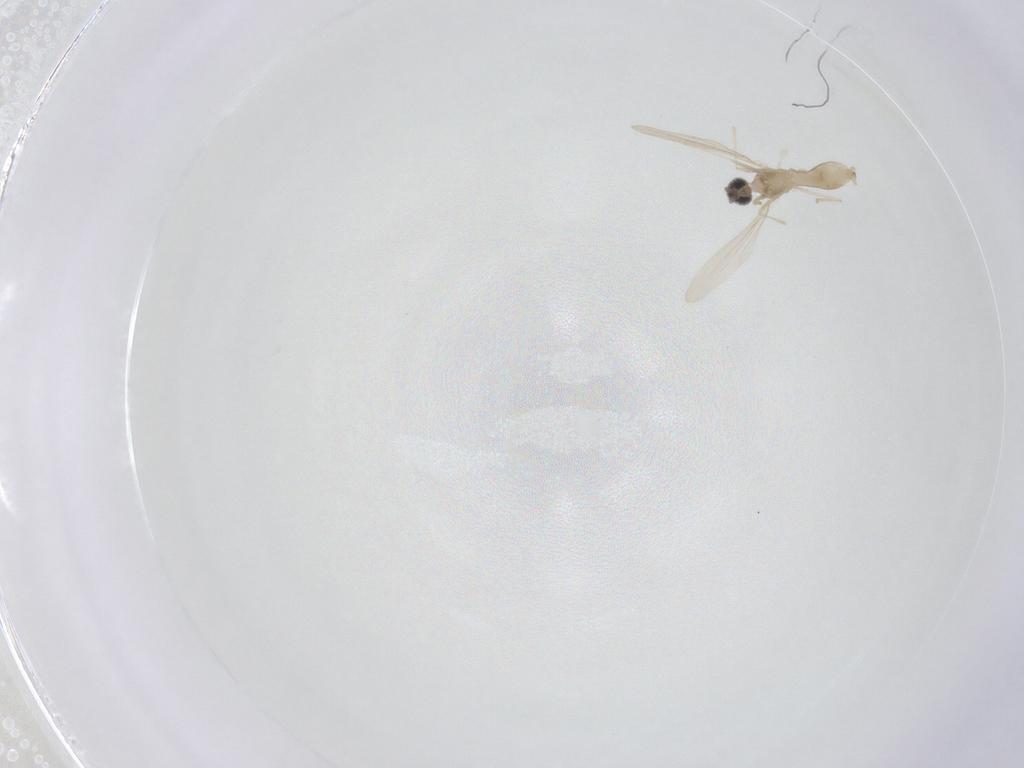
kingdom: Animalia
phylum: Arthropoda
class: Insecta
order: Diptera
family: Cecidomyiidae
